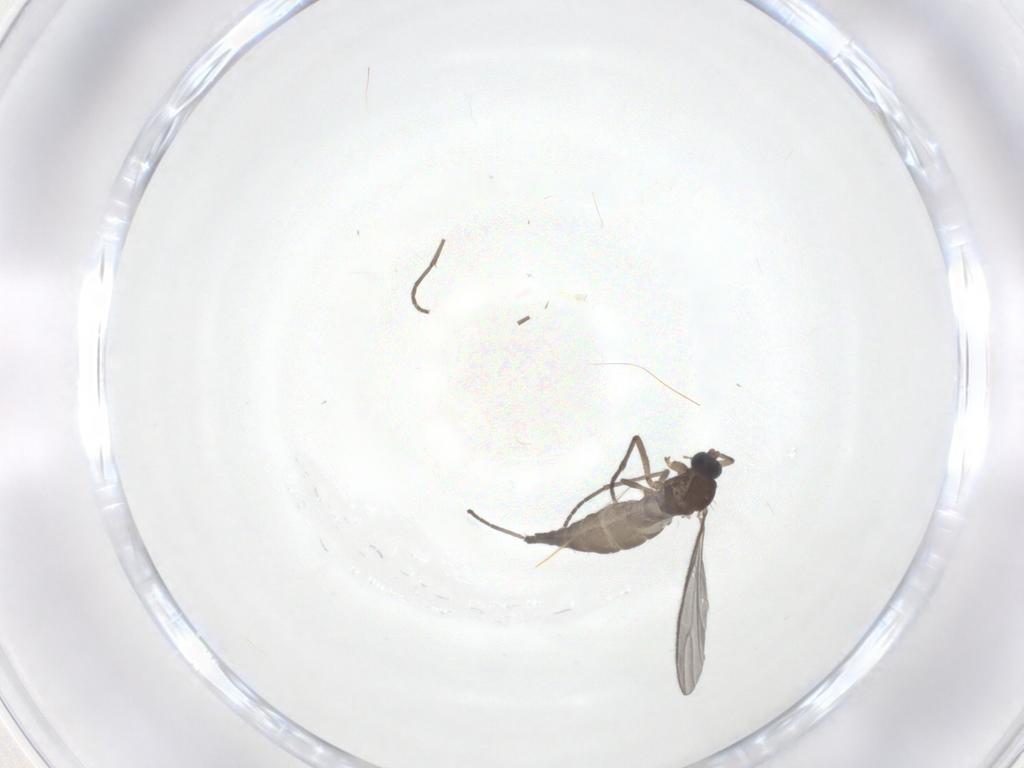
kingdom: Animalia
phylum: Arthropoda
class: Insecta
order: Diptera
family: Sciaridae
